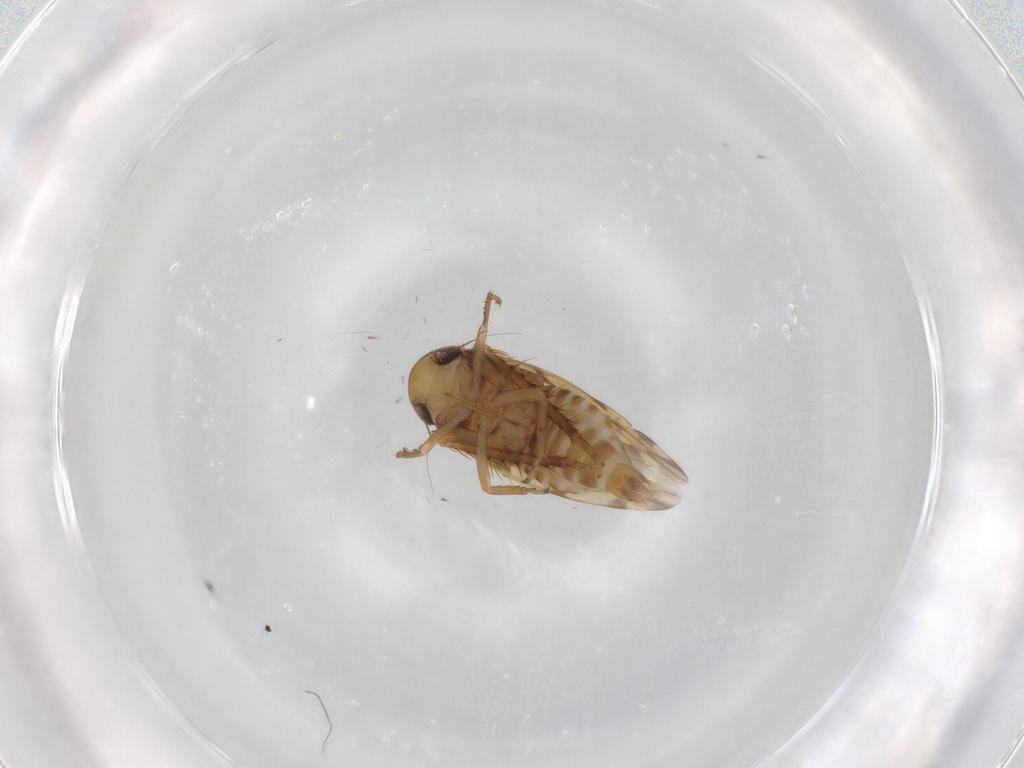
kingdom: Animalia
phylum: Arthropoda
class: Insecta
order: Hemiptera
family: Cicadellidae
